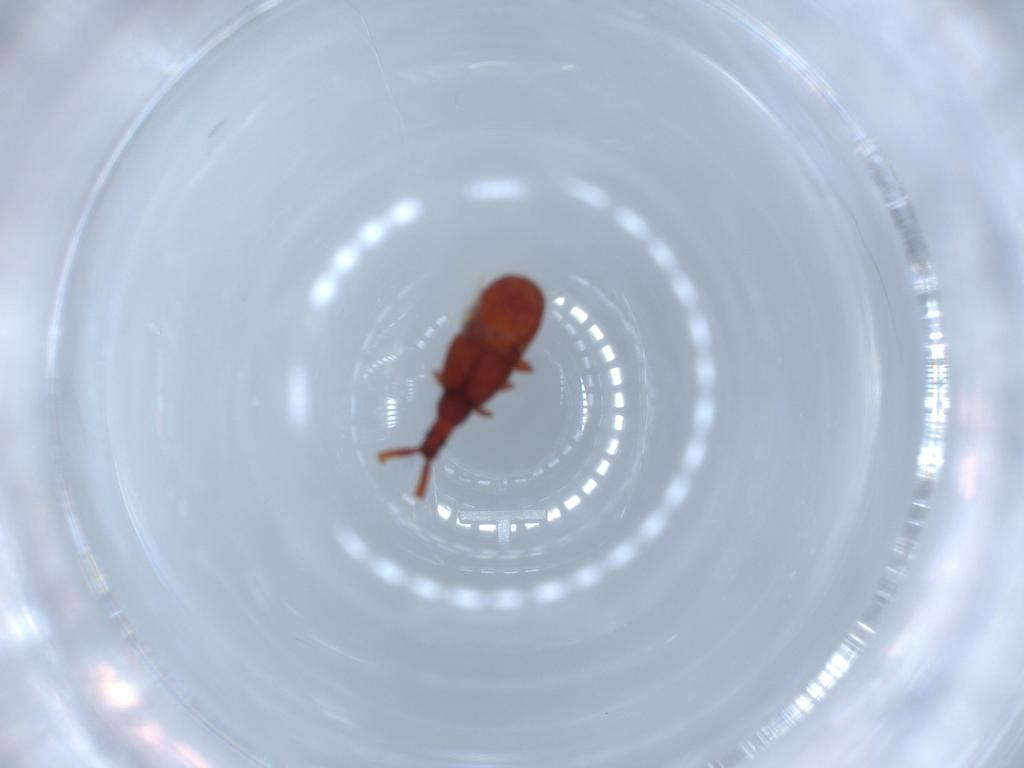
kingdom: Animalia
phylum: Arthropoda
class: Insecta
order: Coleoptera
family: Staphylinidae
